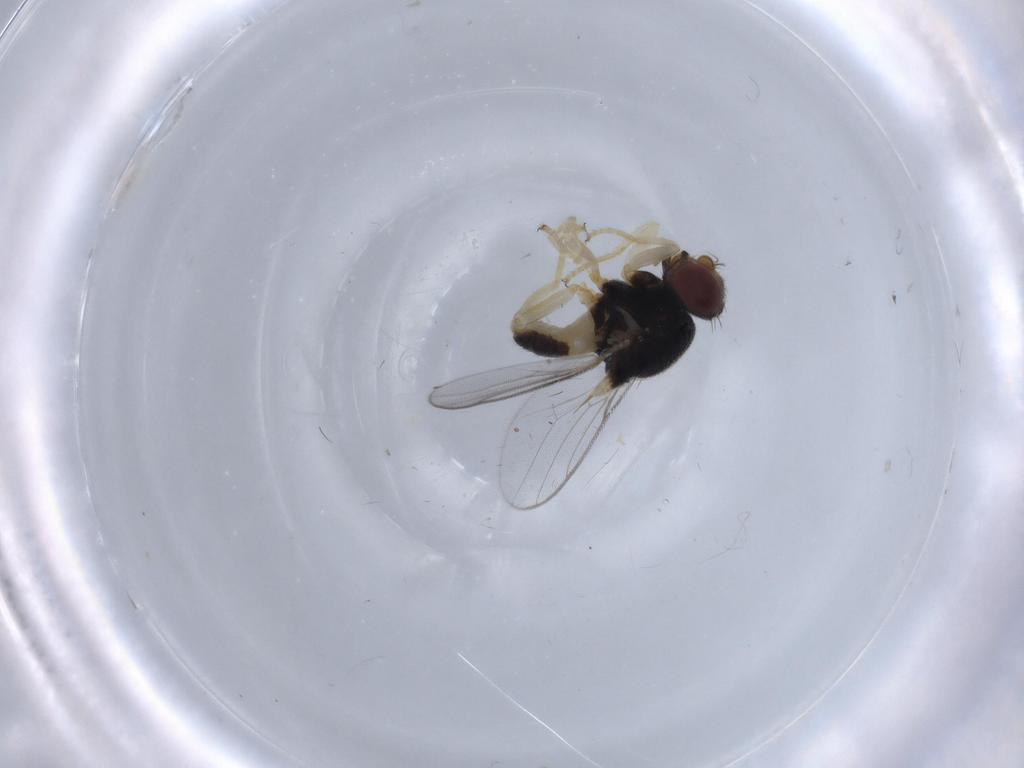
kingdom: Animalia
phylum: Arthropoda
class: Insecta
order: Diptera
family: Chloropidae
